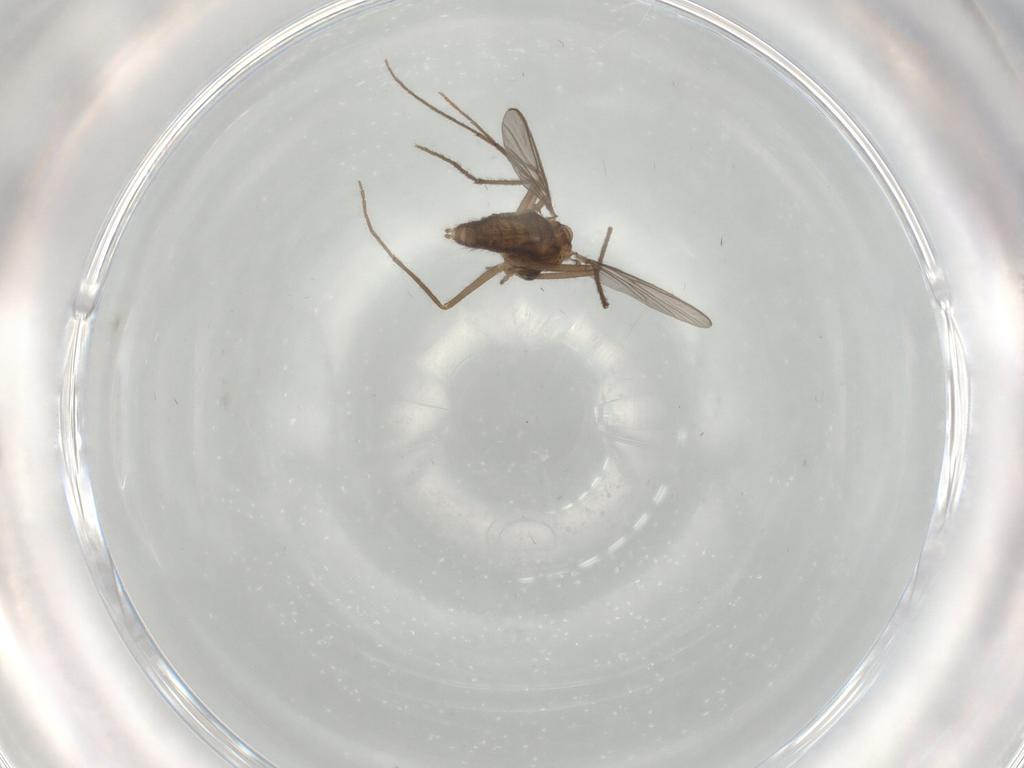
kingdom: Animalia
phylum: Arthropoda
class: Insecta
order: Diptera
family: Phoridae
